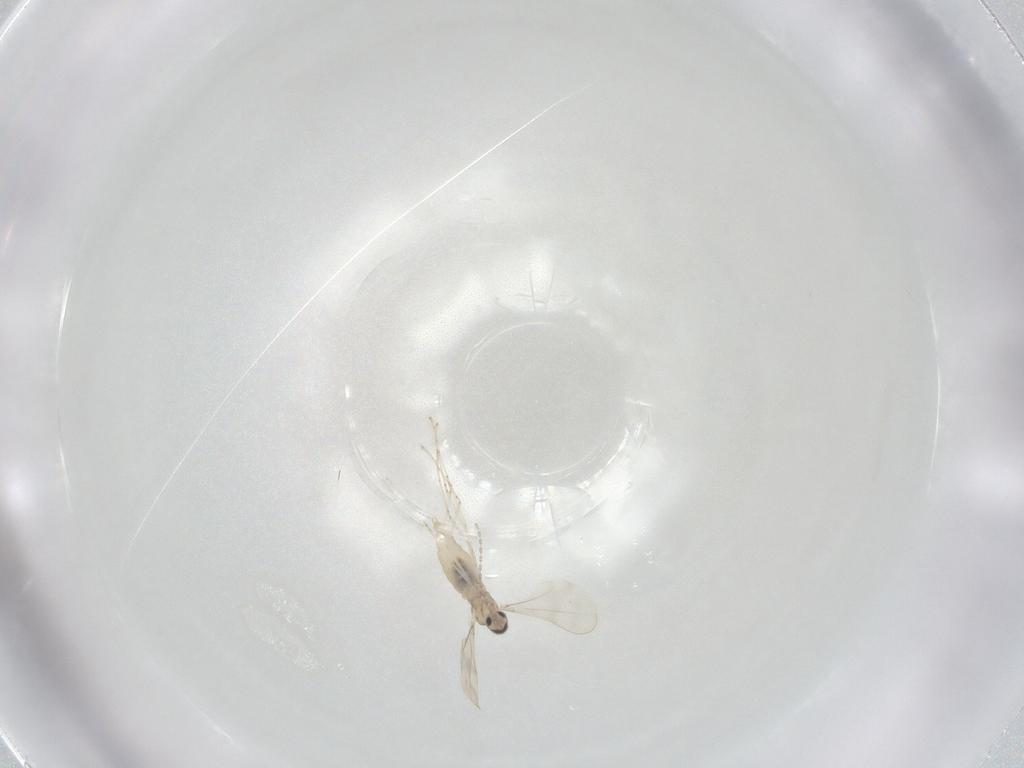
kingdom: Animalia
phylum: Arthropoda
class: Insecta
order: Diptera
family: Cecidomyiidae
